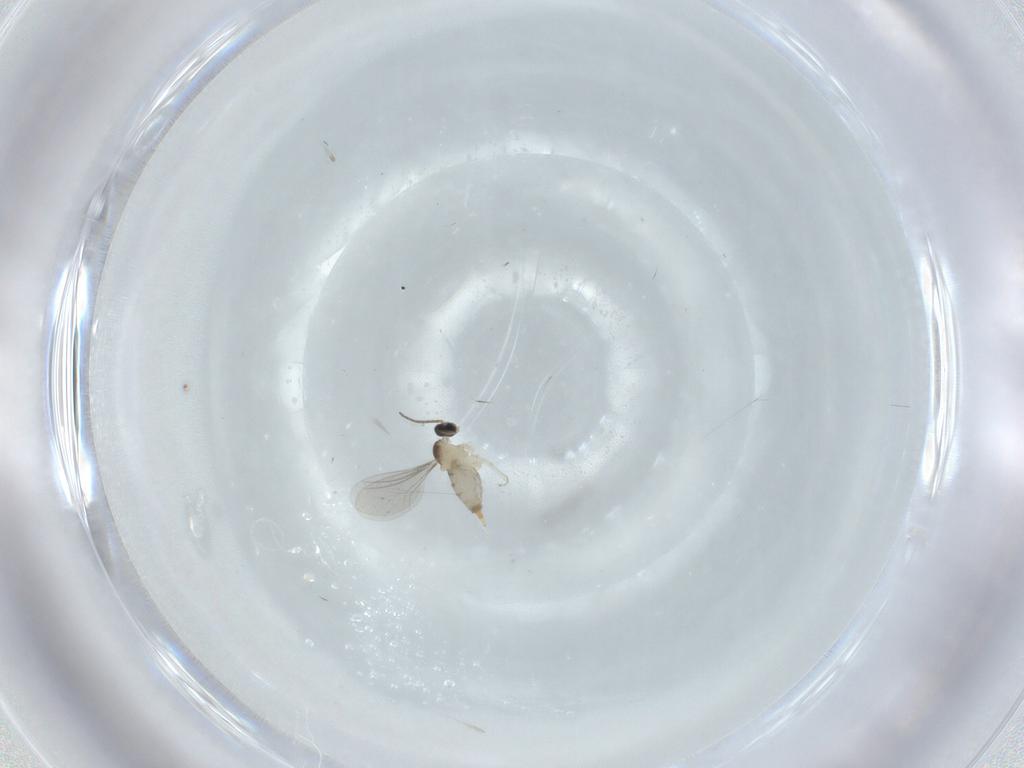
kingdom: Animalia
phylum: Arthropoda
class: Insecta
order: Diptera
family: Cecidomyiidae
